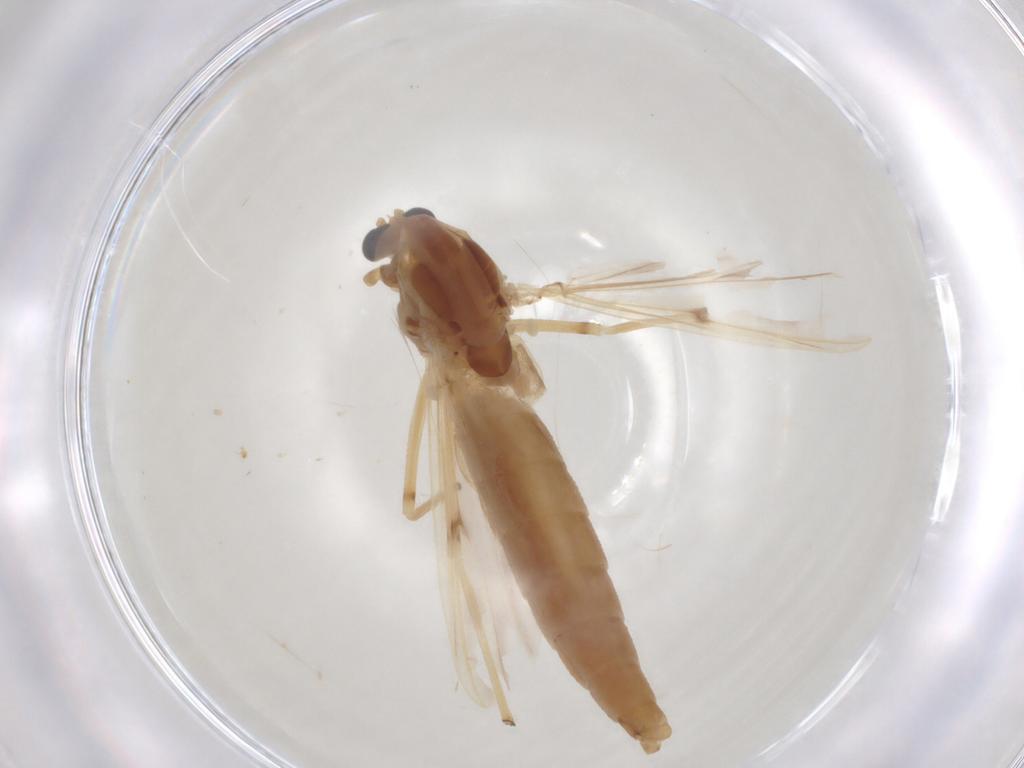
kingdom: Animalia
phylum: Arthropoda
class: Insecta
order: Diptera
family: Chironomidae
